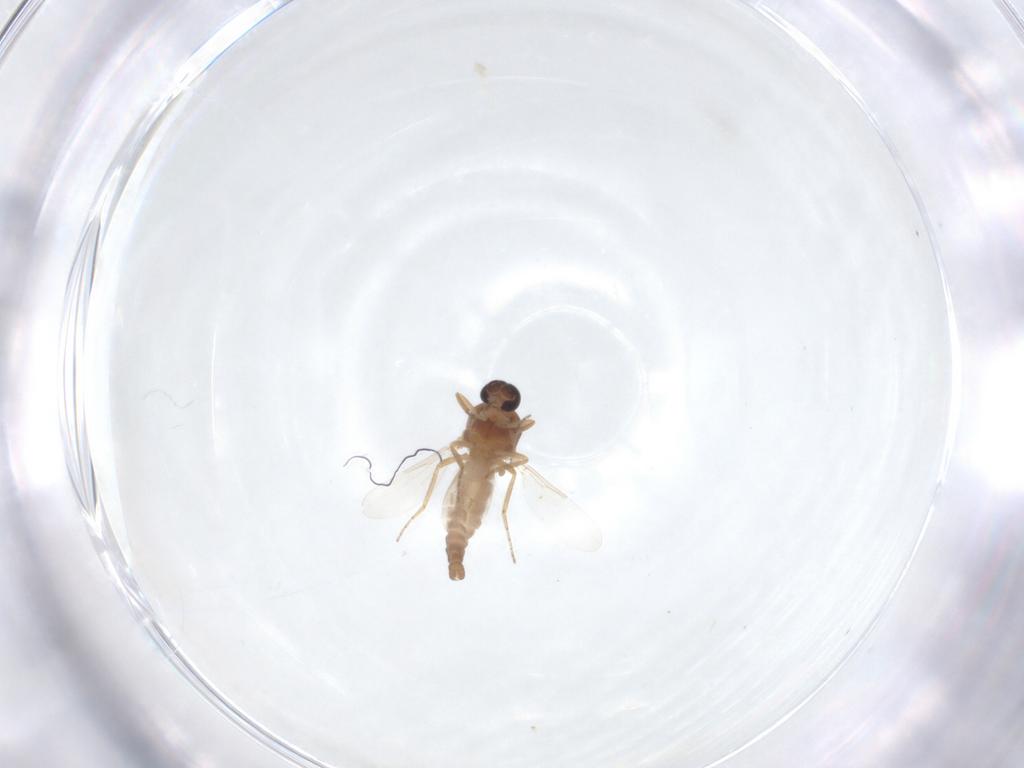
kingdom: Animalia
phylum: Arthropoda
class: Insecta
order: Diptera
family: Ceratopogonidae
